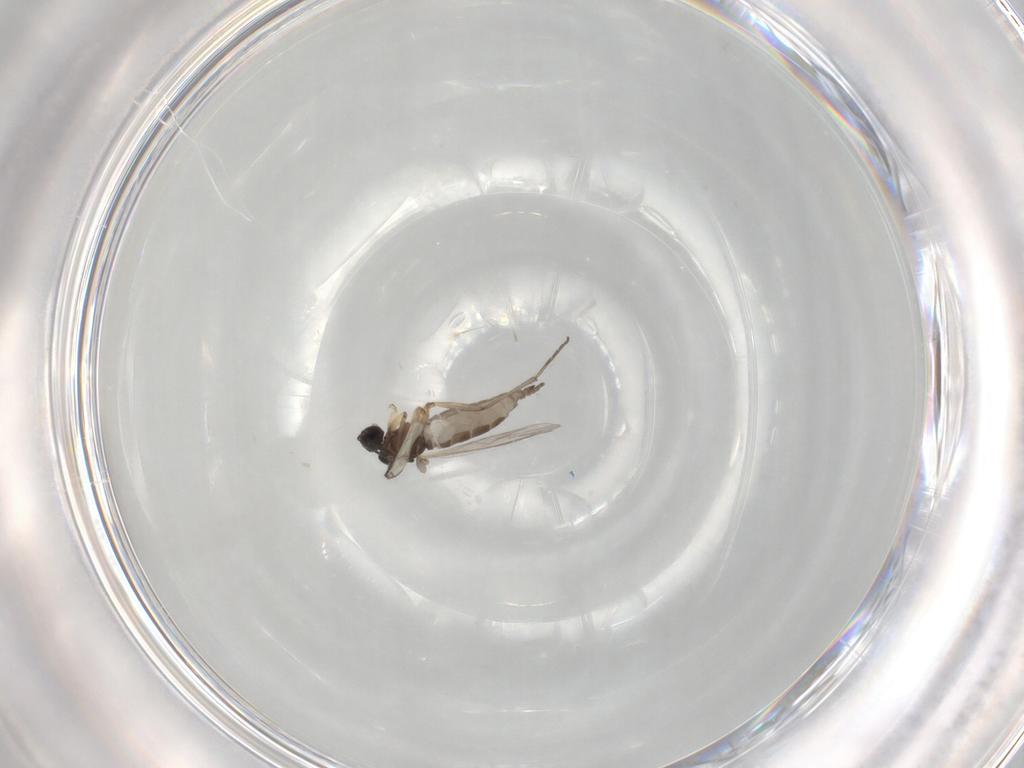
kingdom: Animalia
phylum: Arthropoda
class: Insecta
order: Diptera
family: Sciaridae
